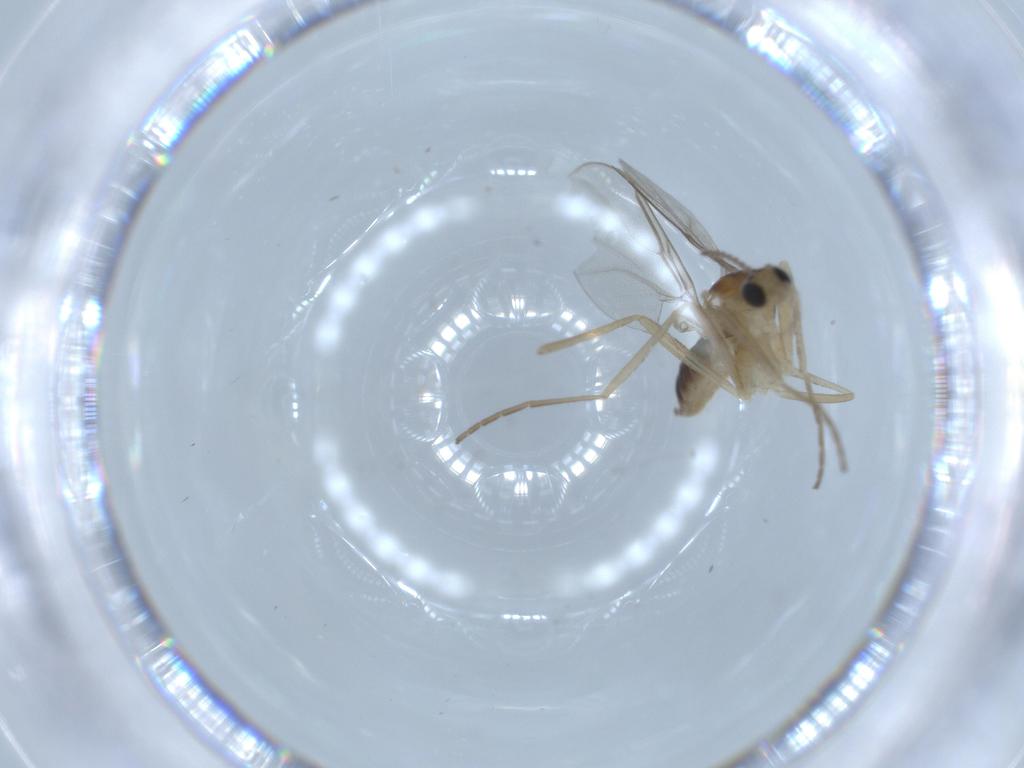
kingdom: Animalia
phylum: Arthropoda
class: Insecta
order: Diptera
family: Cecidomyiidae
